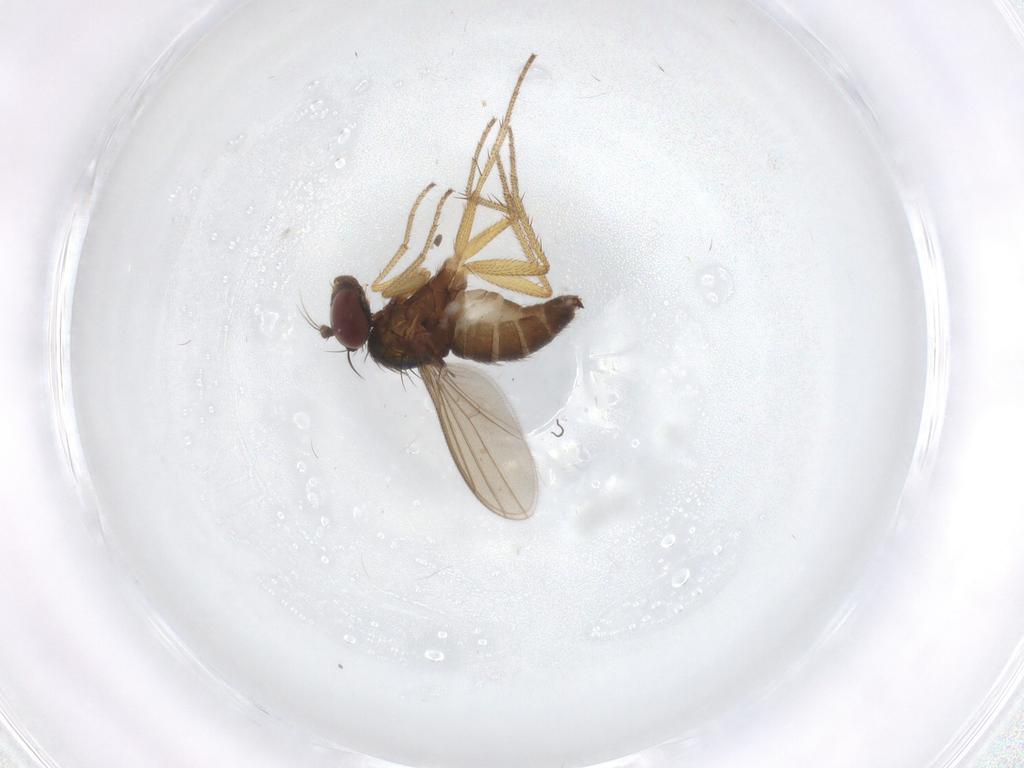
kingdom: Animalia
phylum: Arthropoda
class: Insecta
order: Diptera
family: Dolichopodidae
